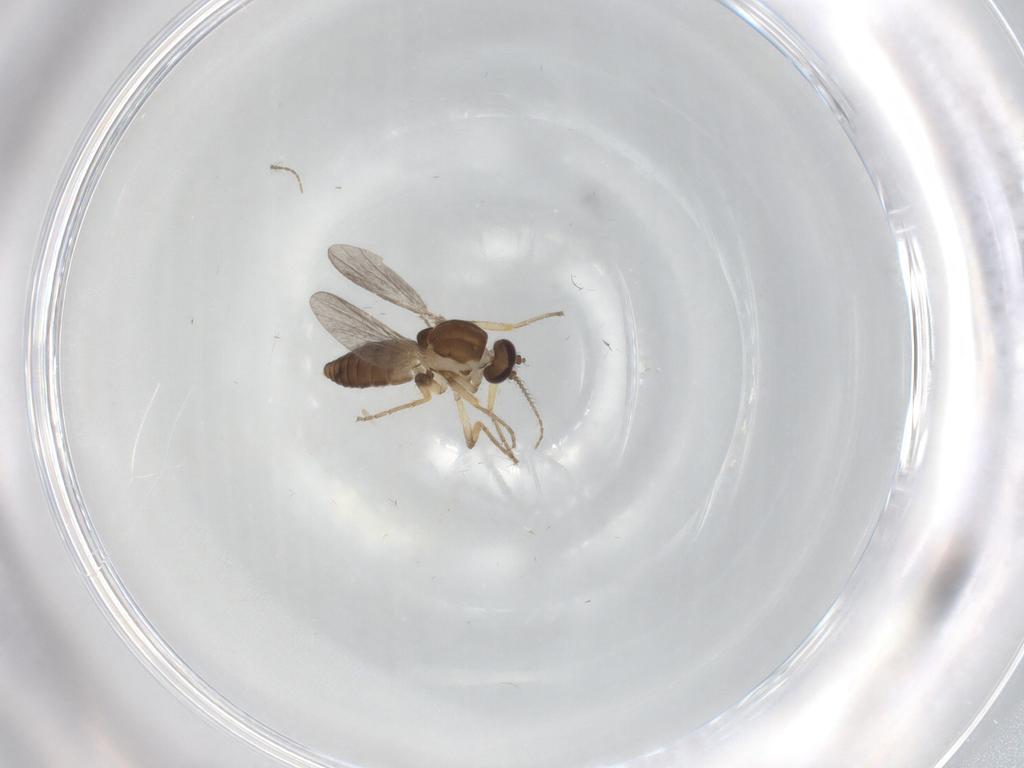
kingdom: Animalia
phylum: Arthropoda
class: Insecta
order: Diptera
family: Ceratopogonidae
